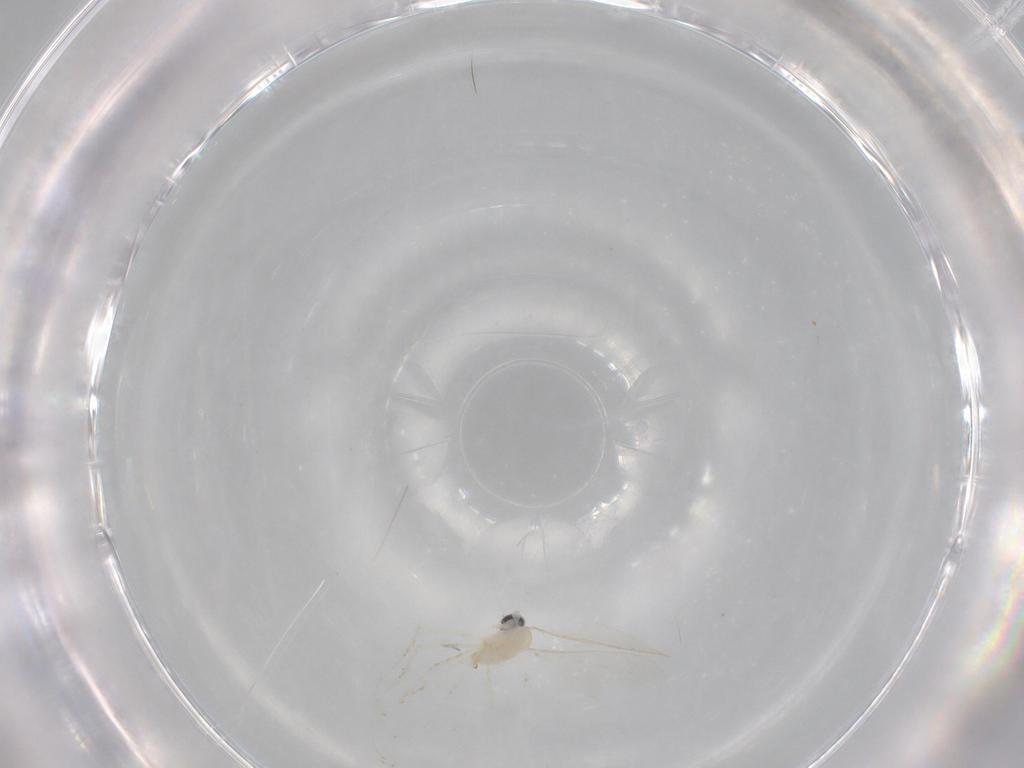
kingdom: Animalia
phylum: Arthropoda
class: Insecta
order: Diptera
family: Cecidomyiidae
